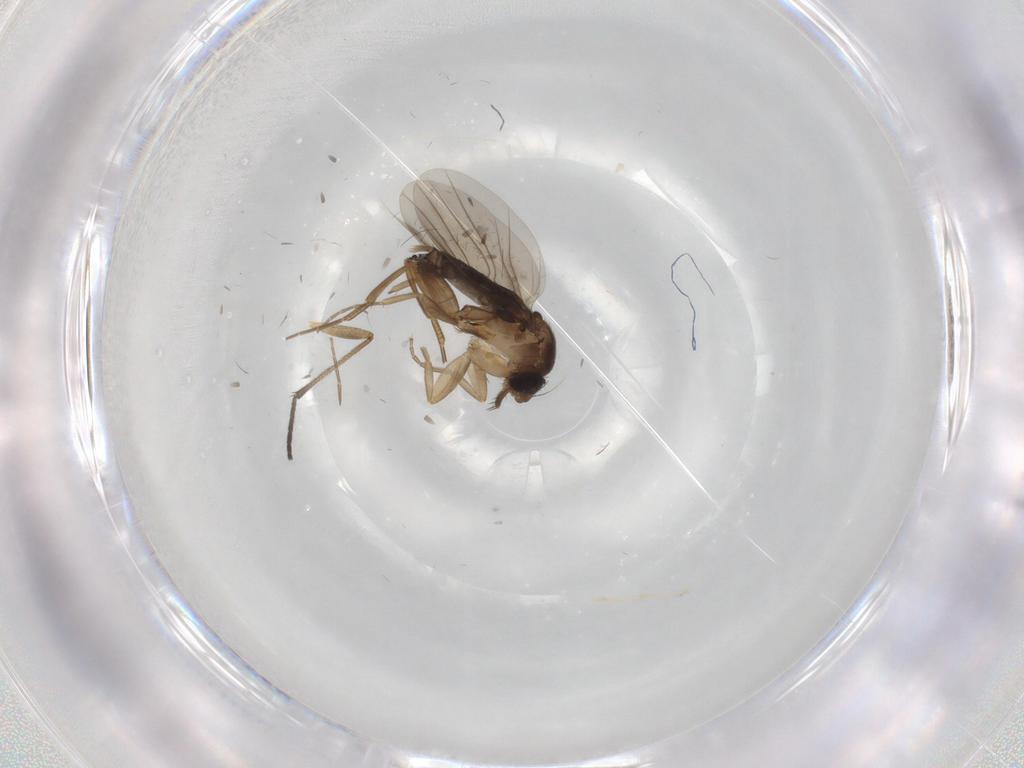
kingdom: Animalia
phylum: Arthropoda
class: Insecta
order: Diptera
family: Phoridae
